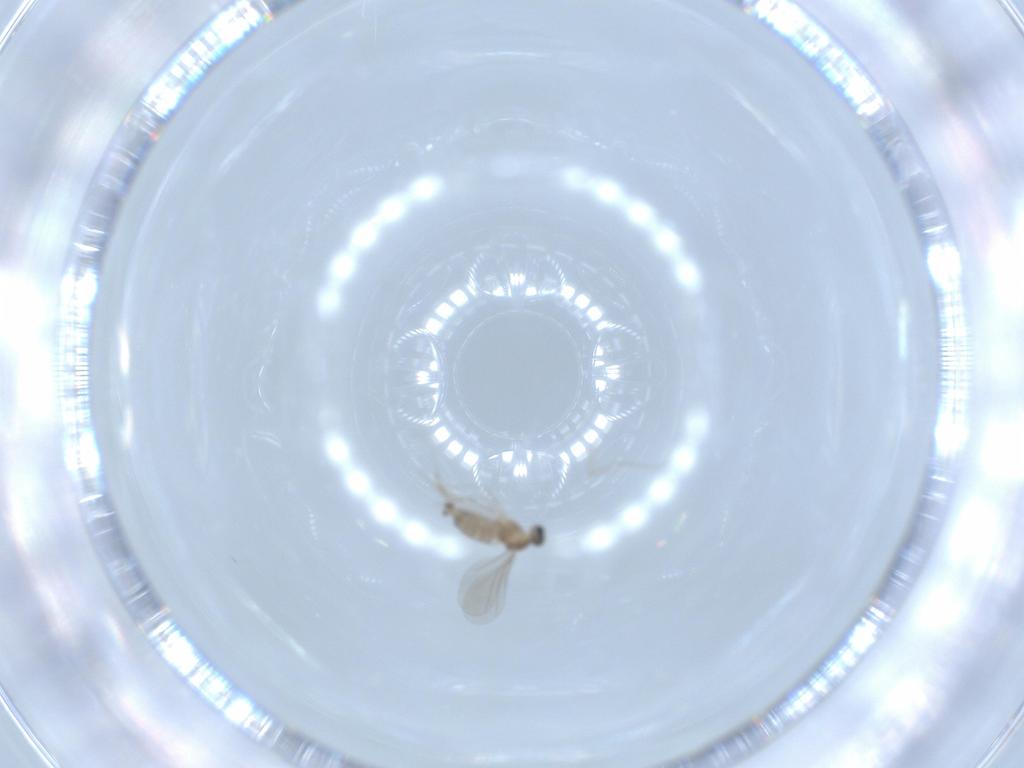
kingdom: Animalia
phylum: Arthropoda
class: Insecta
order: Diptera
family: Cecidomyiidae
